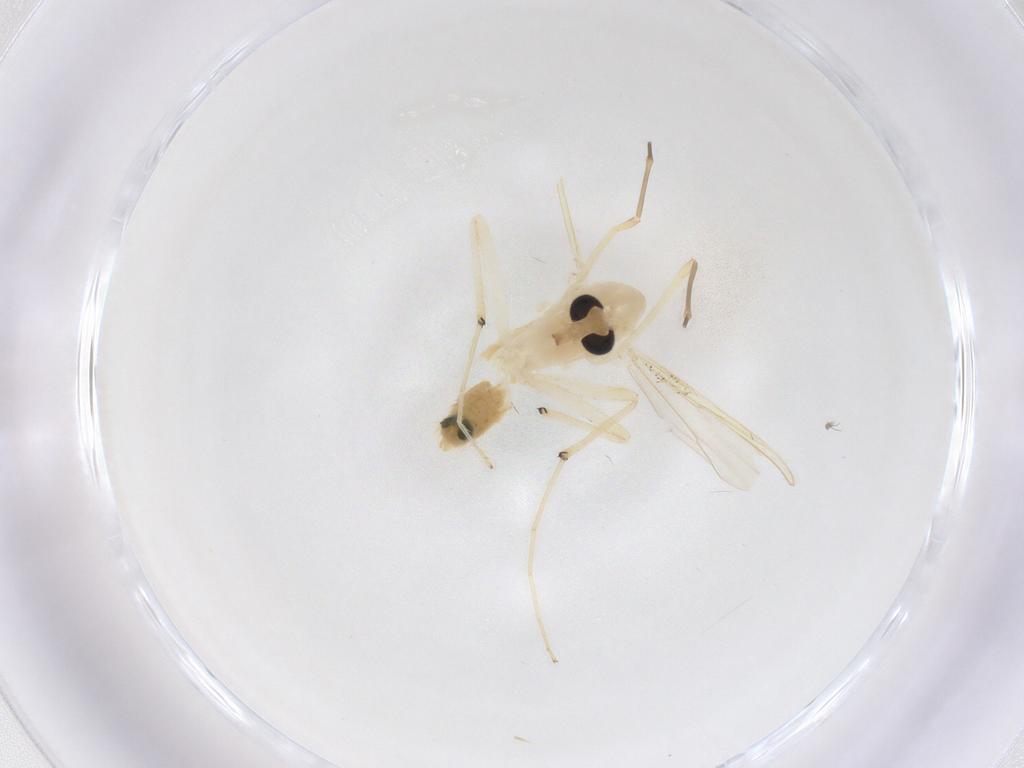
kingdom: Animalia
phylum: Arthropoda
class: Insecta
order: Diptera
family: Chironomidae
